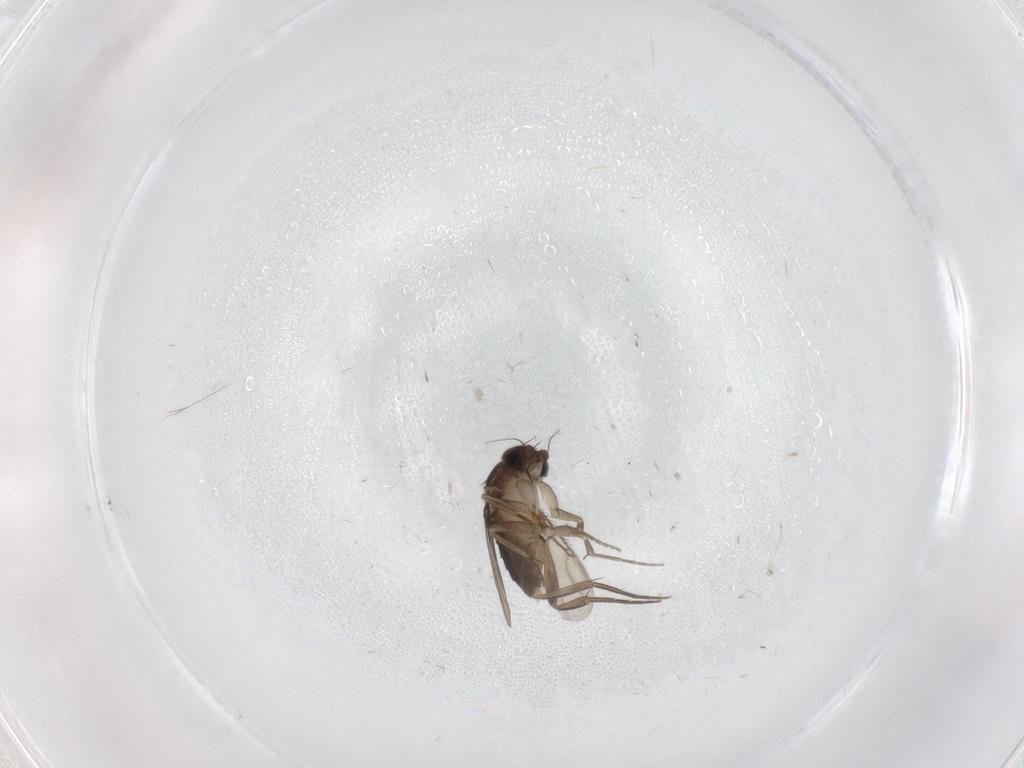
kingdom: Animalia
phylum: Arthropoda
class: Insecta
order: Diptera
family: Phoridae
